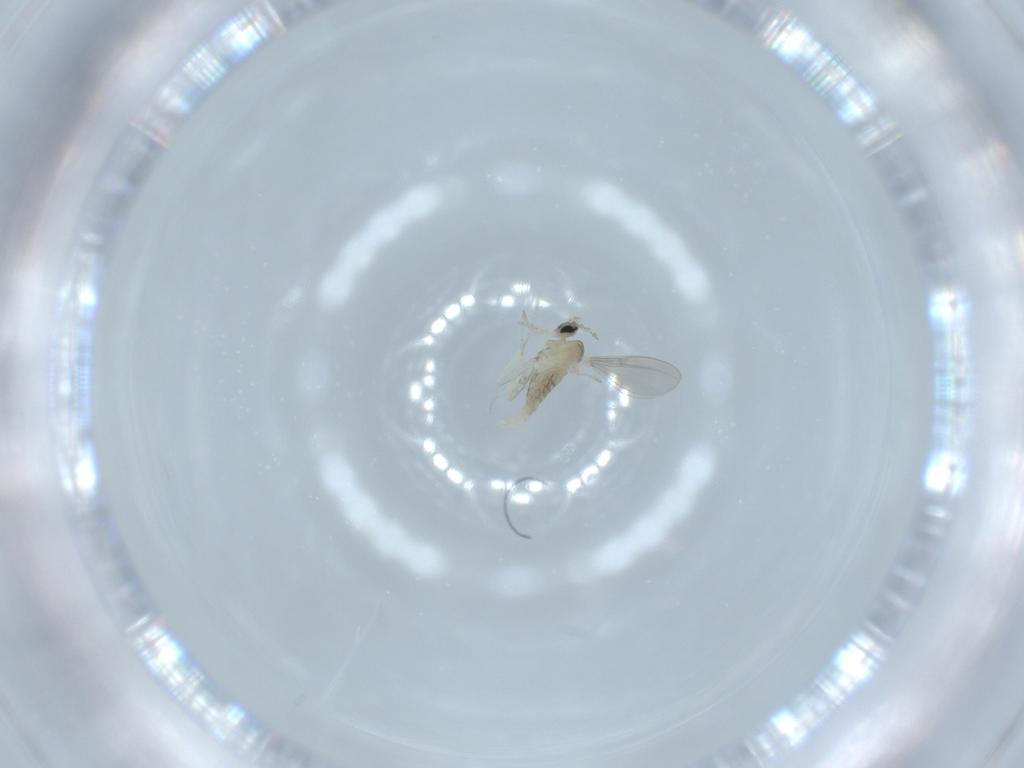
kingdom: Animalia
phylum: Arthropoda
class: Insecta
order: Diptera
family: Cecidomyiidae
